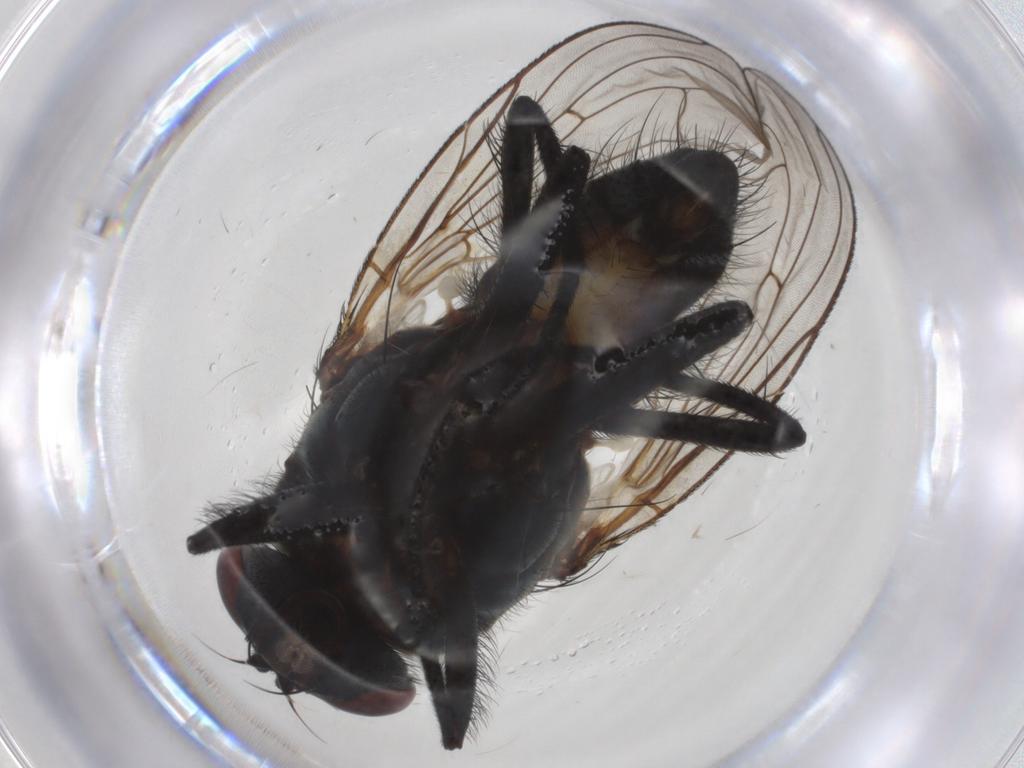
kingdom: Animalia
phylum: Arthropoda
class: Insecta
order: Diptera
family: Anthomyiidae
